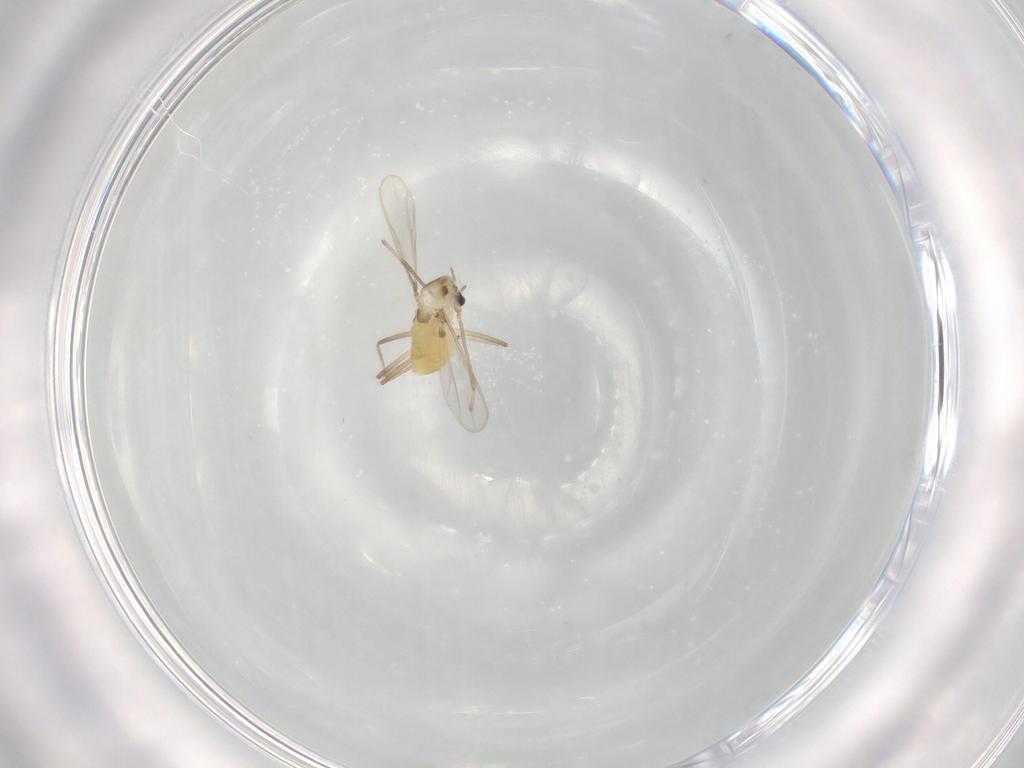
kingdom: Animalia
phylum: Arthropoda
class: Insecta
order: Diptera
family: Chironomidae
